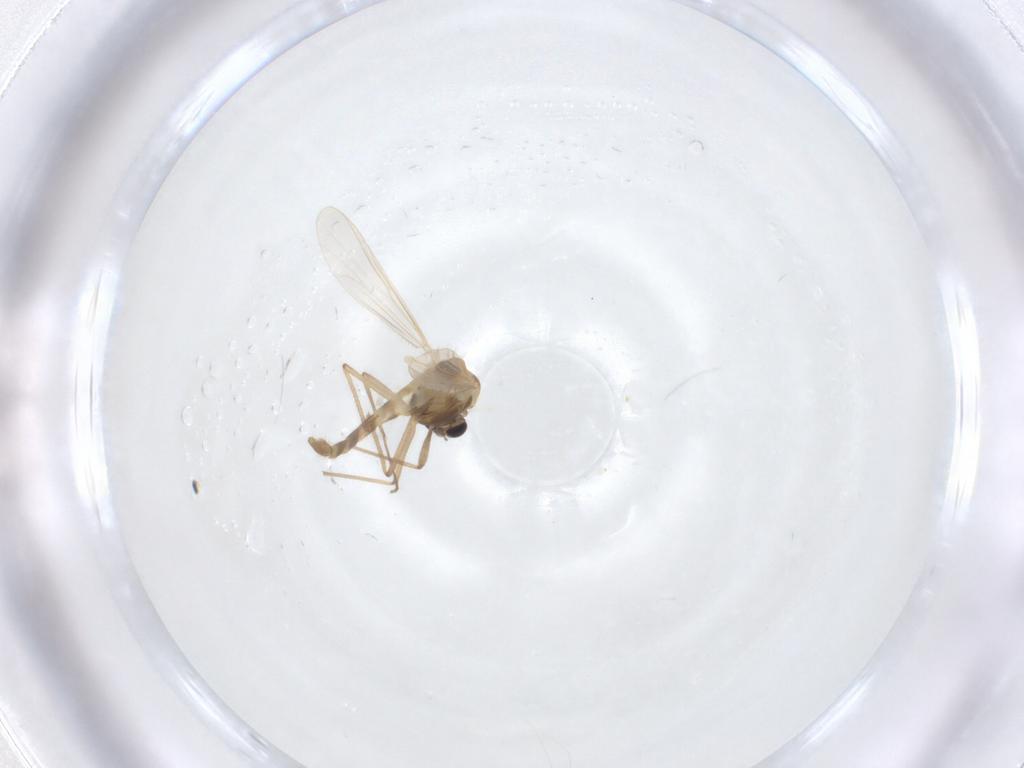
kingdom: Animalia
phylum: Arthropoda
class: Insecta
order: Diptera
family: Chironomidae
